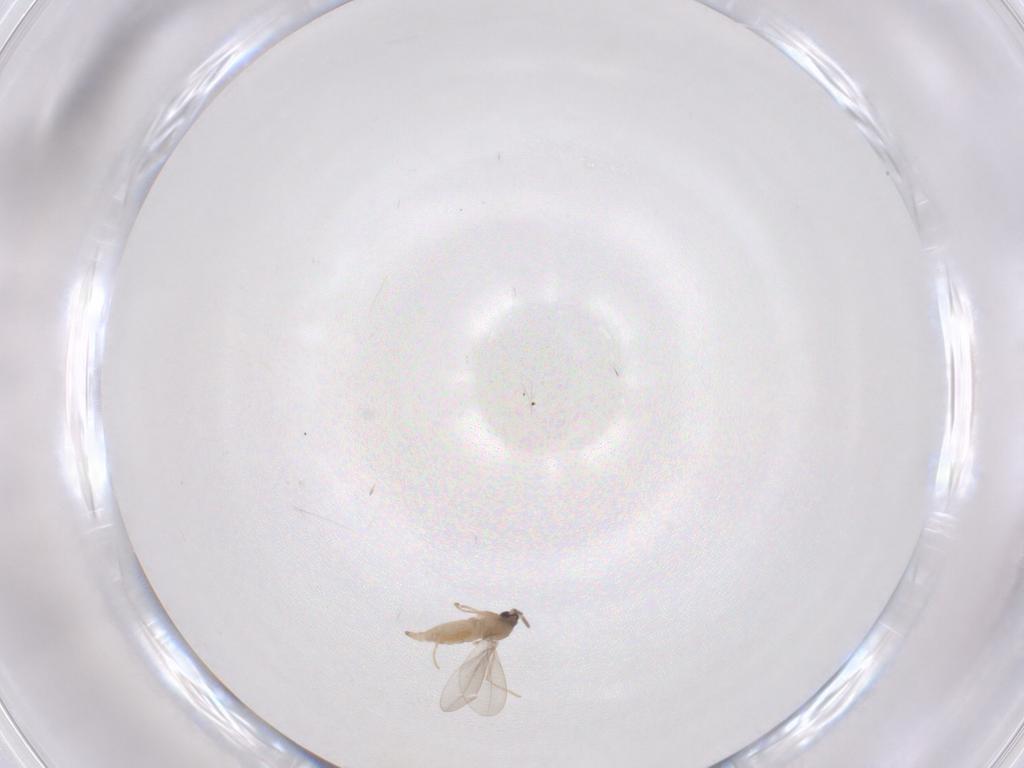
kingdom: Animalia
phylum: Arthropoda
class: Insecta
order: Diptera
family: Cecidomyiidae
